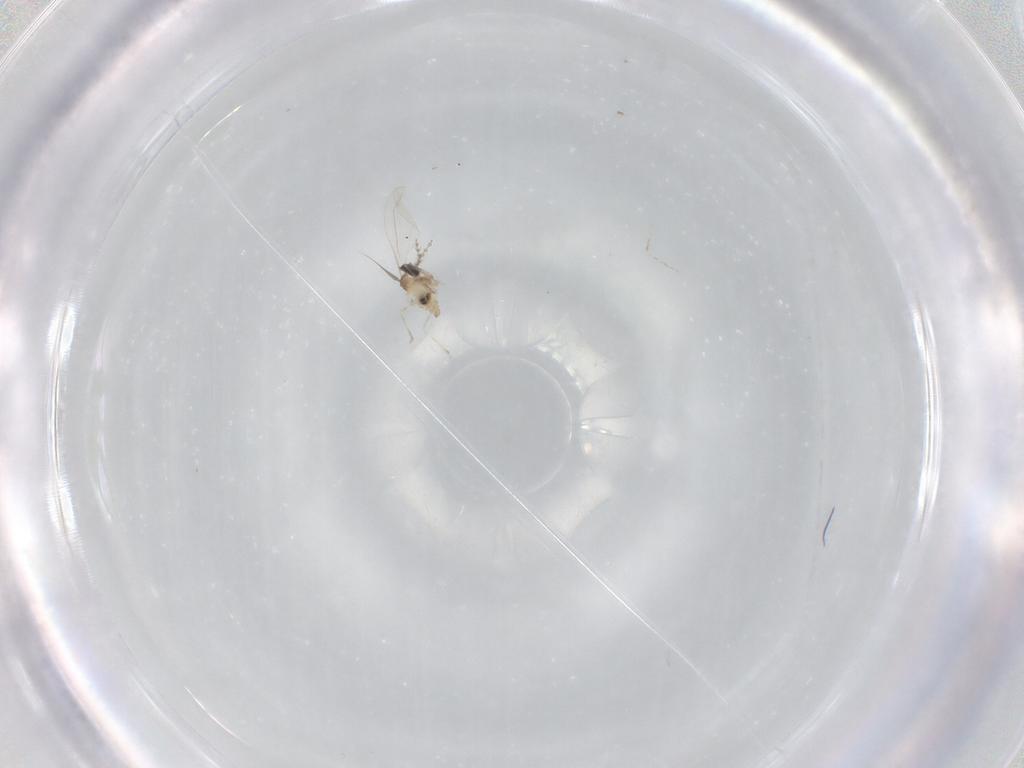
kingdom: Animalia
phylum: Arthropoda
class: Insecta
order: Diptera
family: Cecidomyiidae
